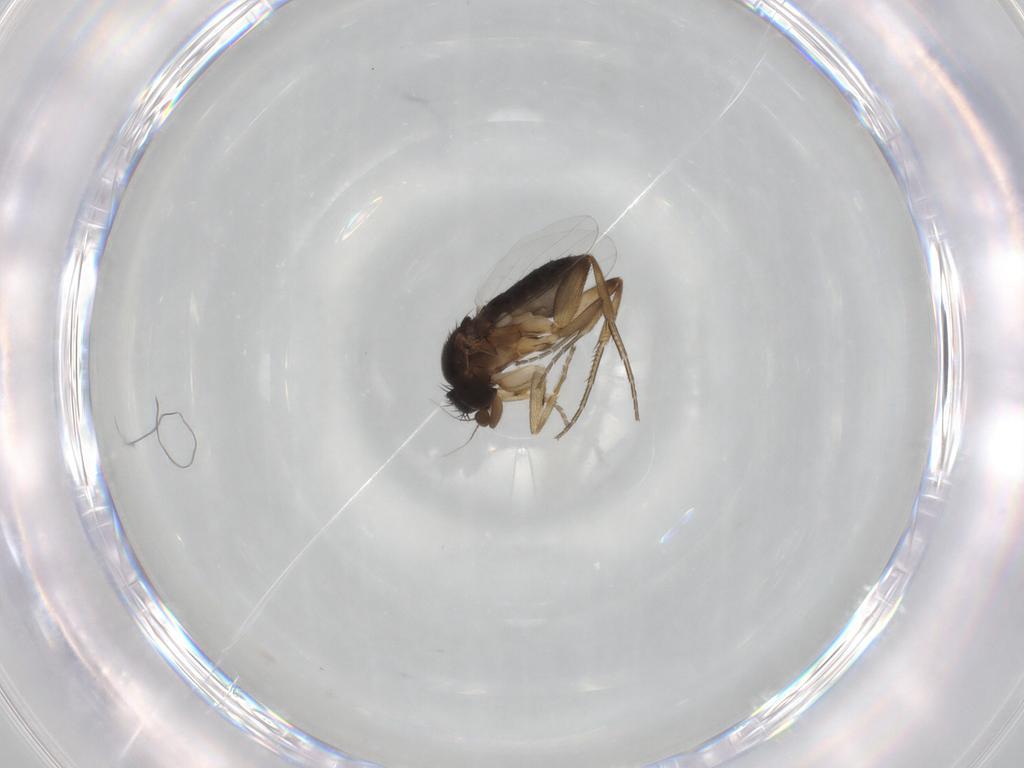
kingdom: Animalia
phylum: Arthropoda
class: Insecta
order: Diptera
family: Phoridae
